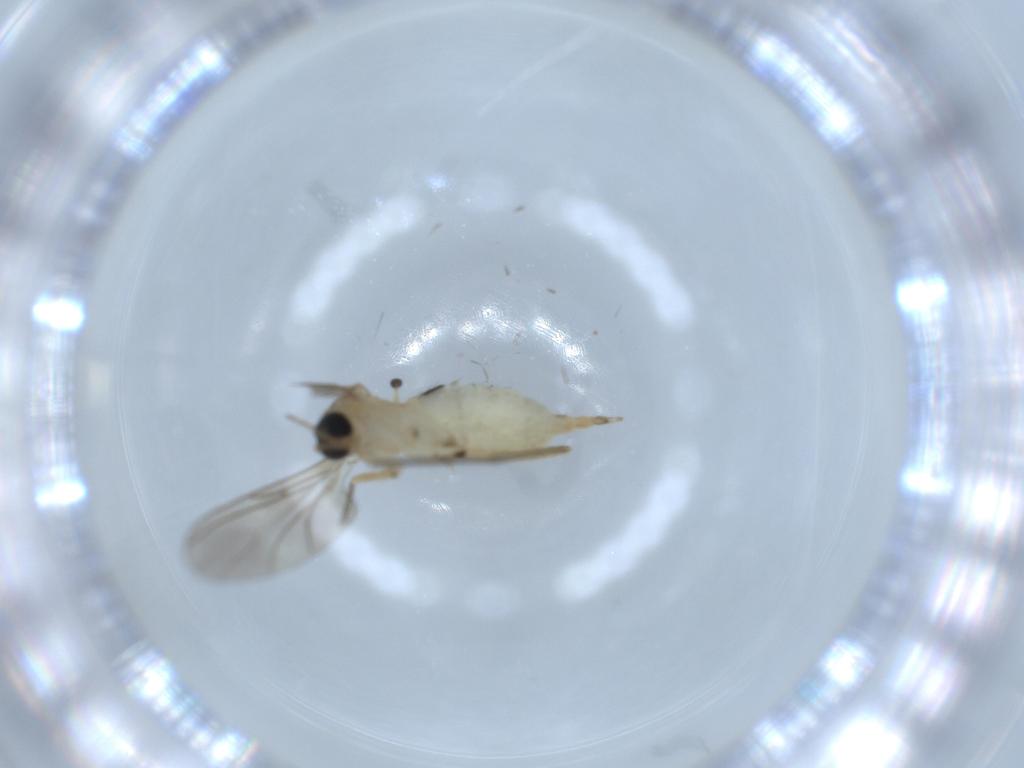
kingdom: Animalia
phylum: Arthropoda
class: Insecta
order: Diptera
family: Sciaridae
